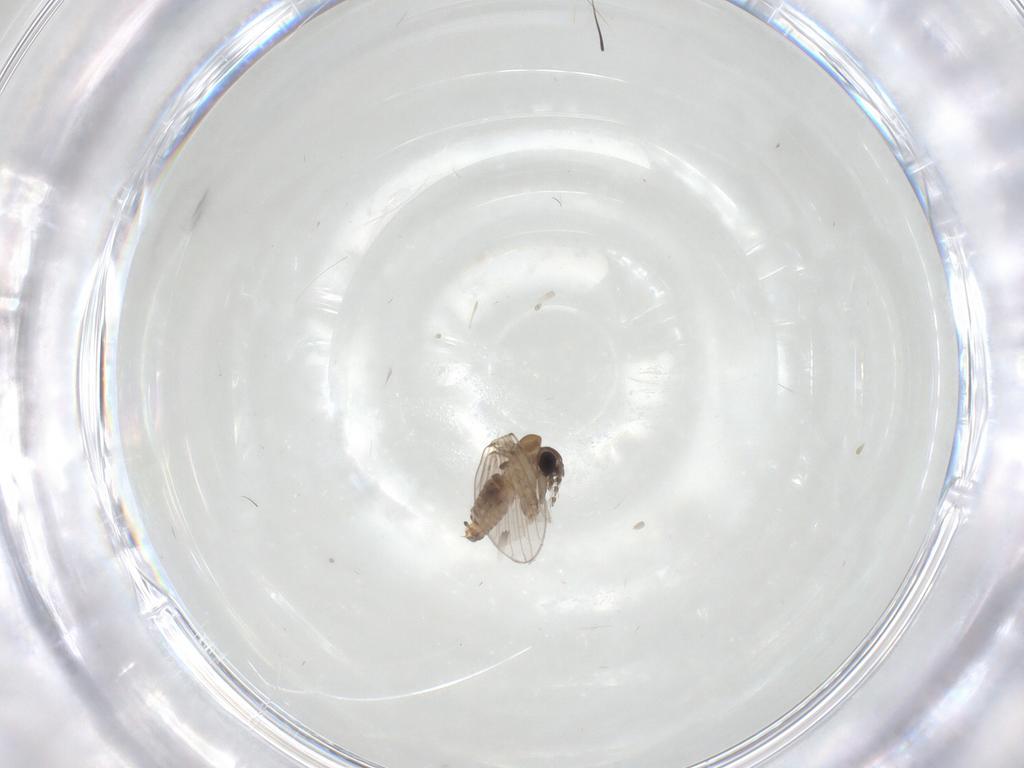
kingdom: Animalia
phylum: Arthropoda
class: Insecta
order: Diptera
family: Psychodidae
